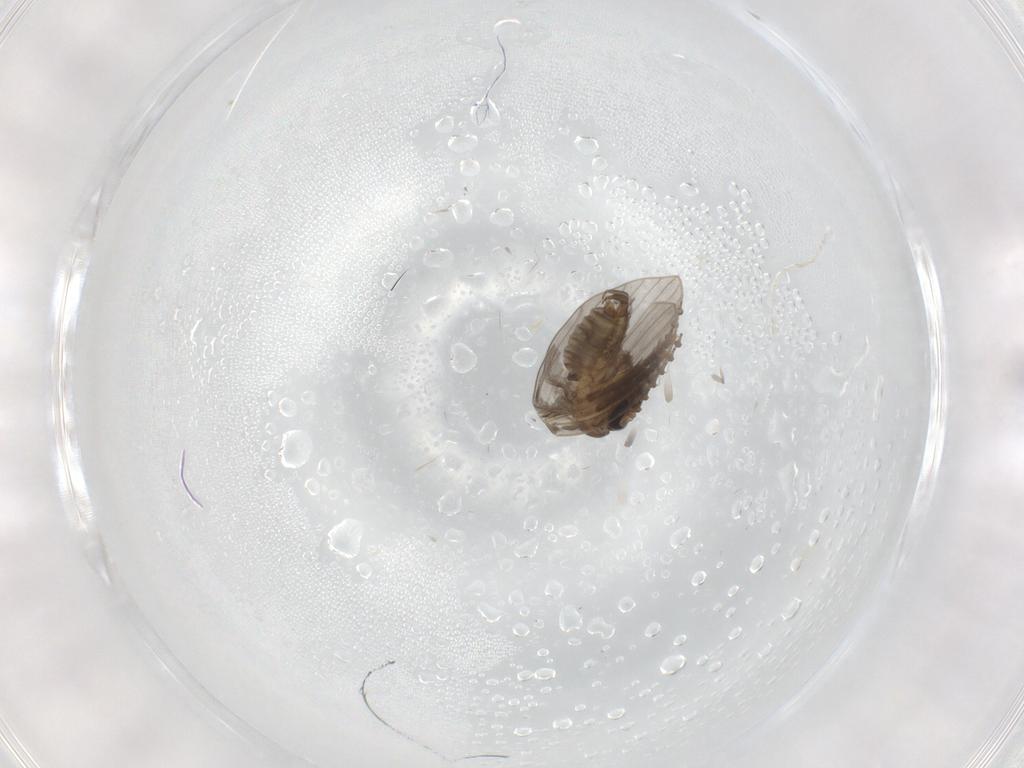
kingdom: Animalia
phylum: Arthropoda
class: Insecta
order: Diptera
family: Psychodidae
